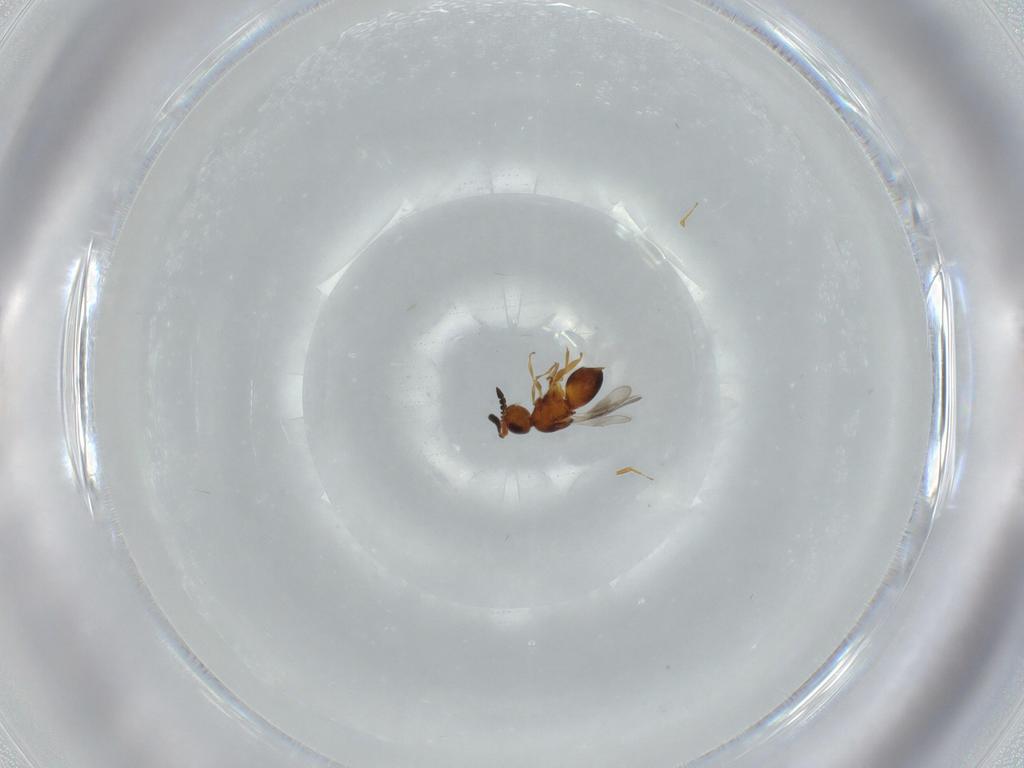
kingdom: Animalia
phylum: Arthropoda
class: Insecta
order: Hymenoptera
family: Ceraphronidae
